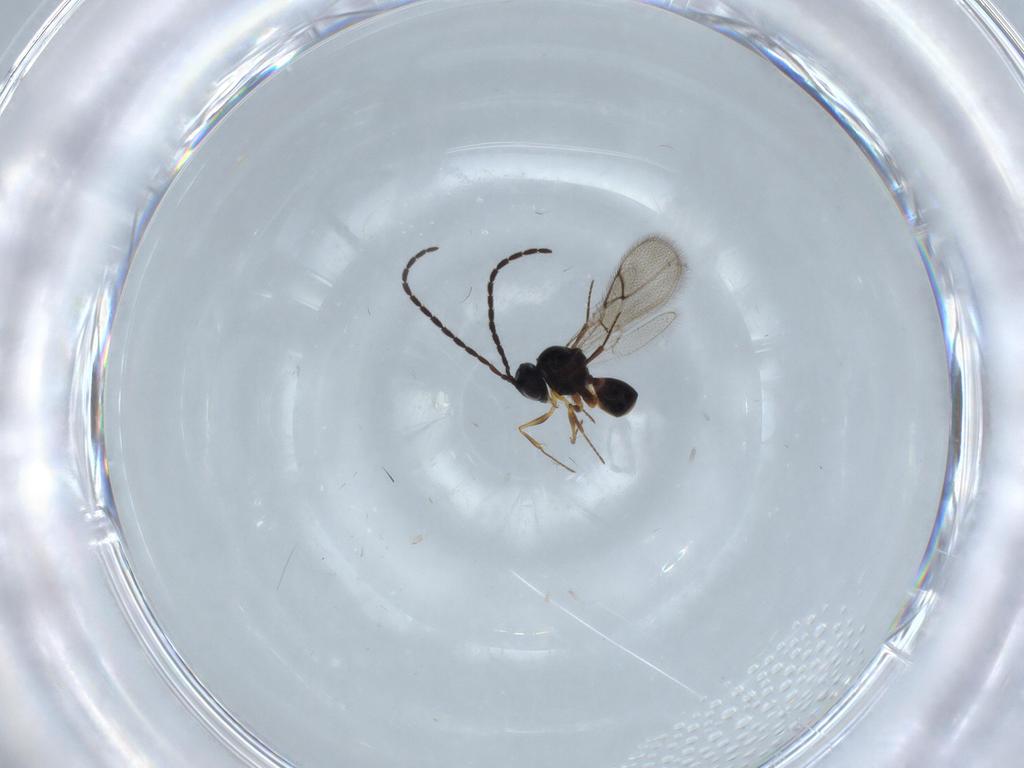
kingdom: Animalia
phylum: Arthropoda
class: Insecta
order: Hymenoptera
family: Figitidae
